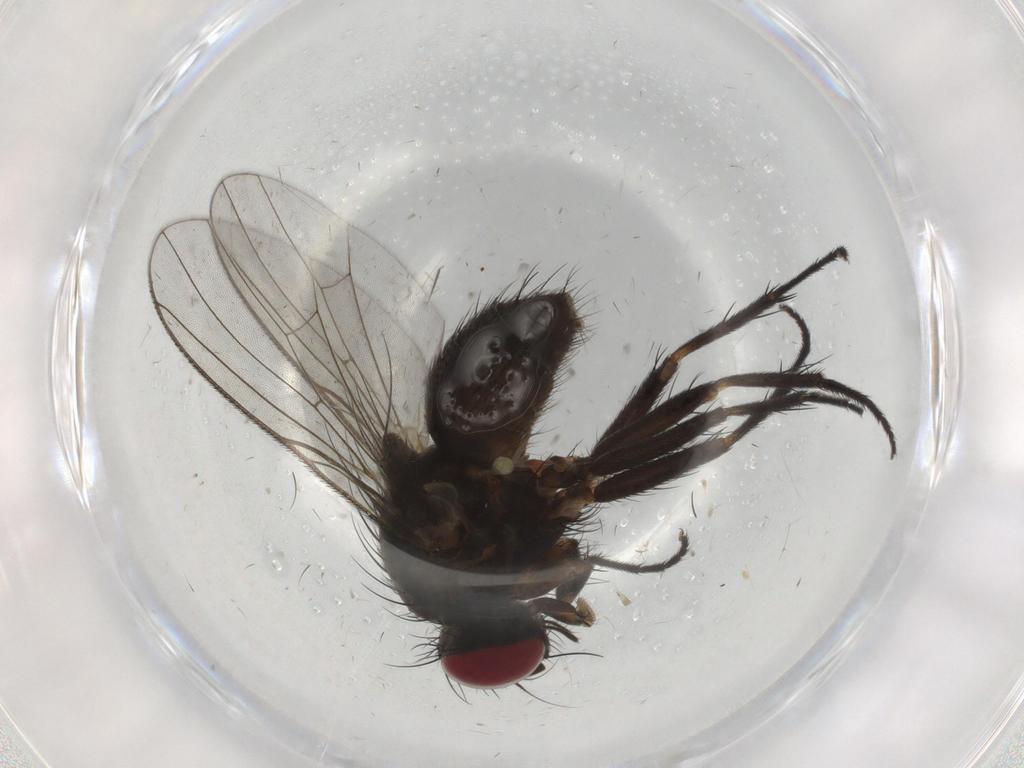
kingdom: Animalia
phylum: Arthropoda
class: Insecta
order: Diptera
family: Muscidae
